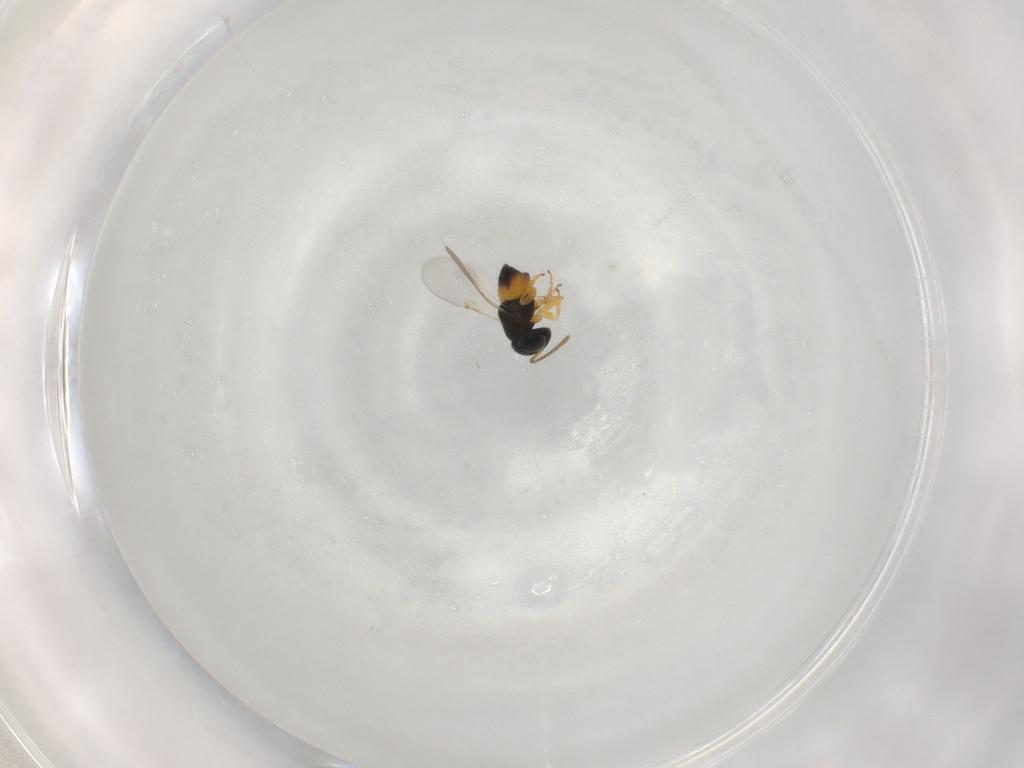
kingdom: Animalia
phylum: Arthropoda
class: Insecta
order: Hymenoptera
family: Encyrtidae
